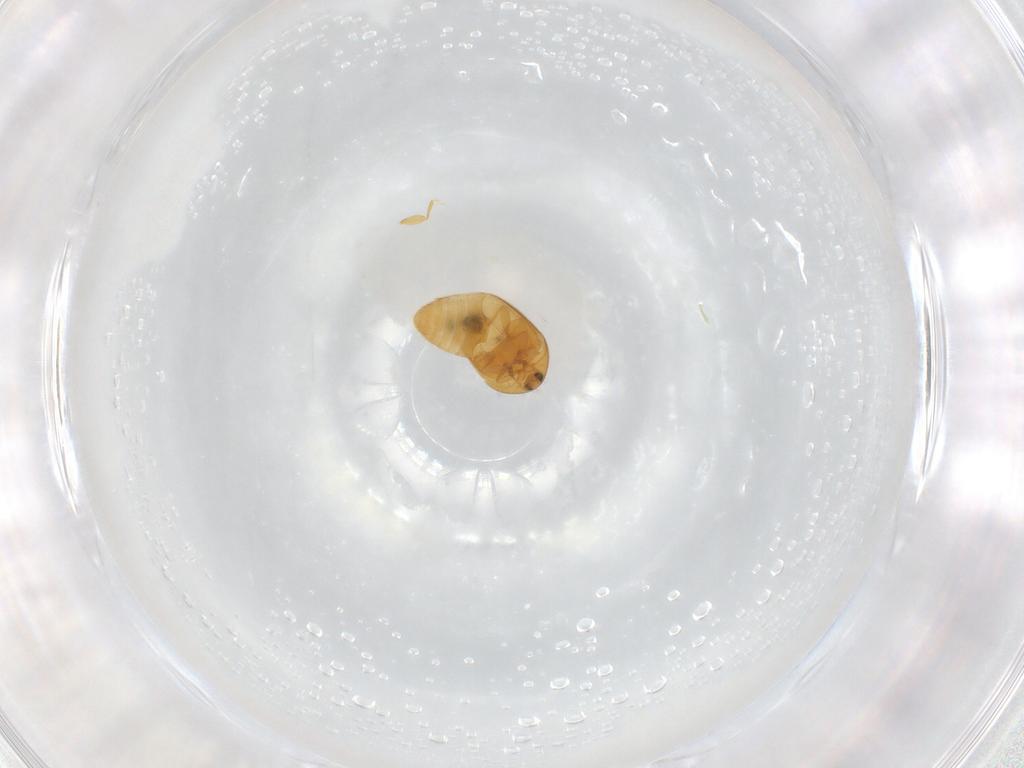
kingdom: Animalia
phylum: Arthropoda
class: Insecta
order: Coleoptera
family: Corylophidae
